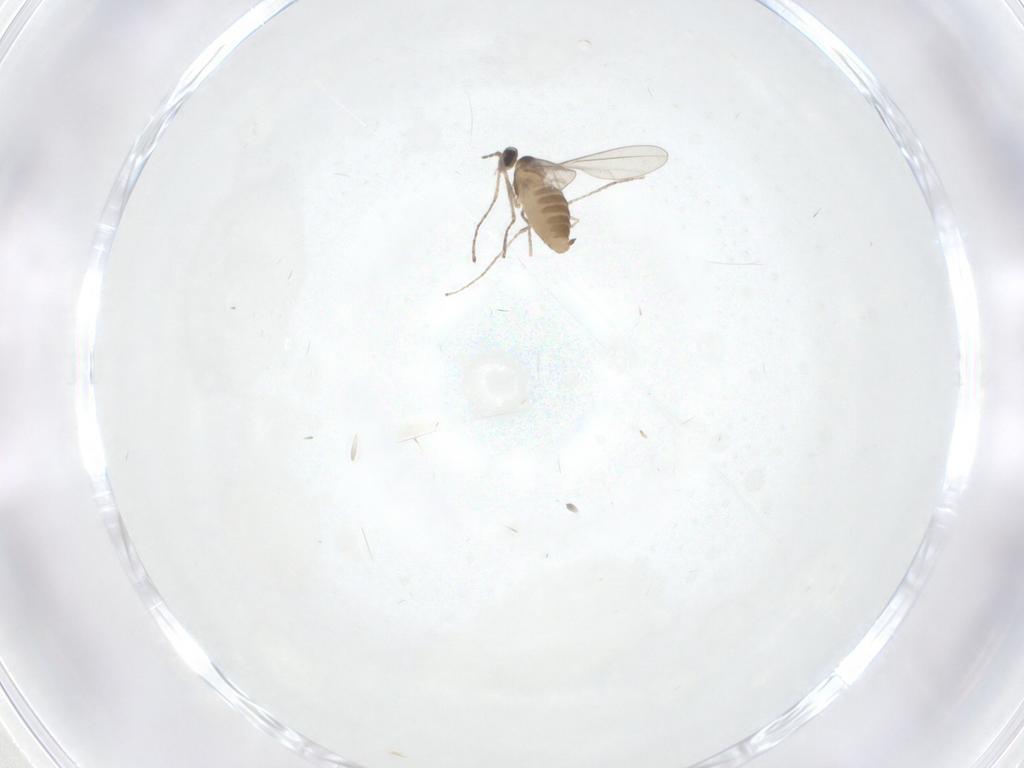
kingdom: Animalia
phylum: Arthropoda
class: Insecta
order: Diptera
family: Cecidomyiidae
